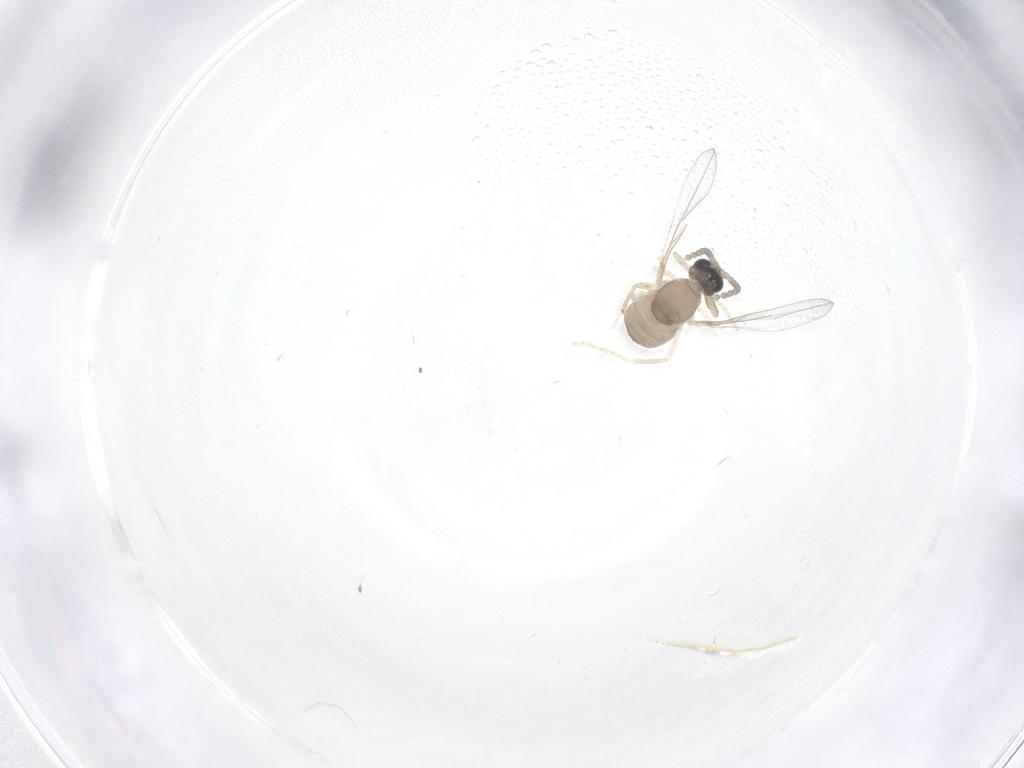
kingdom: Animalia
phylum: Arthropoda
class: Insecta
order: Diptera
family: Cecidomyiidae
